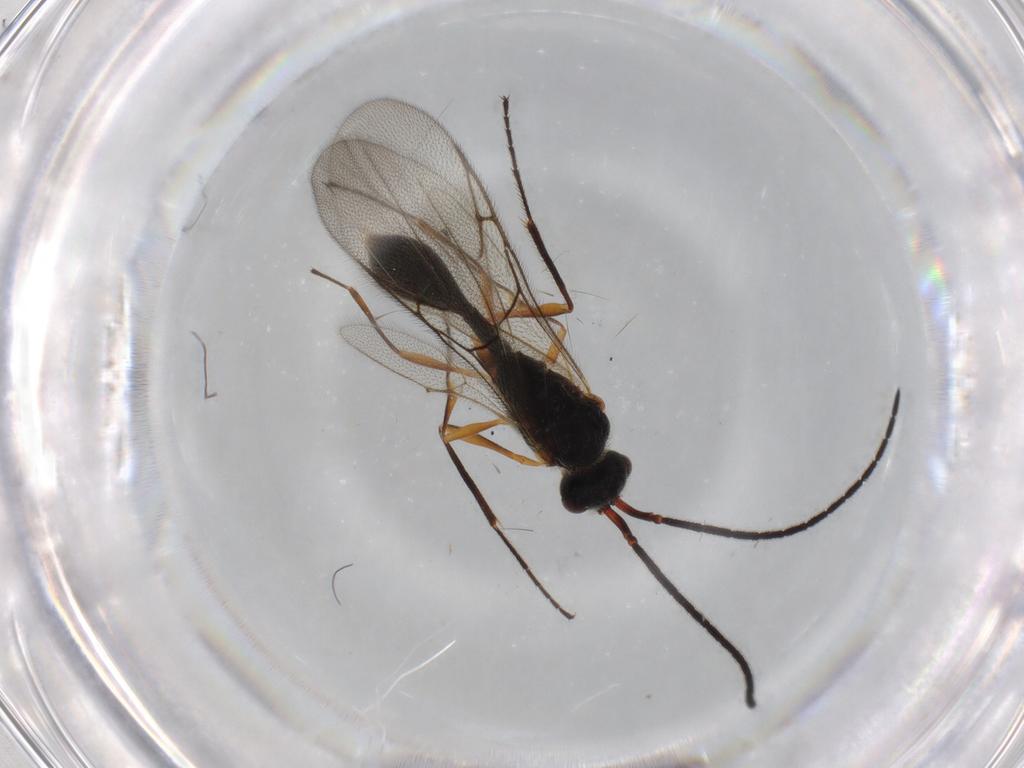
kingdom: Animalia
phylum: Arthropoda
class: Insecta
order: Hymenoptera
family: Diapriidae
